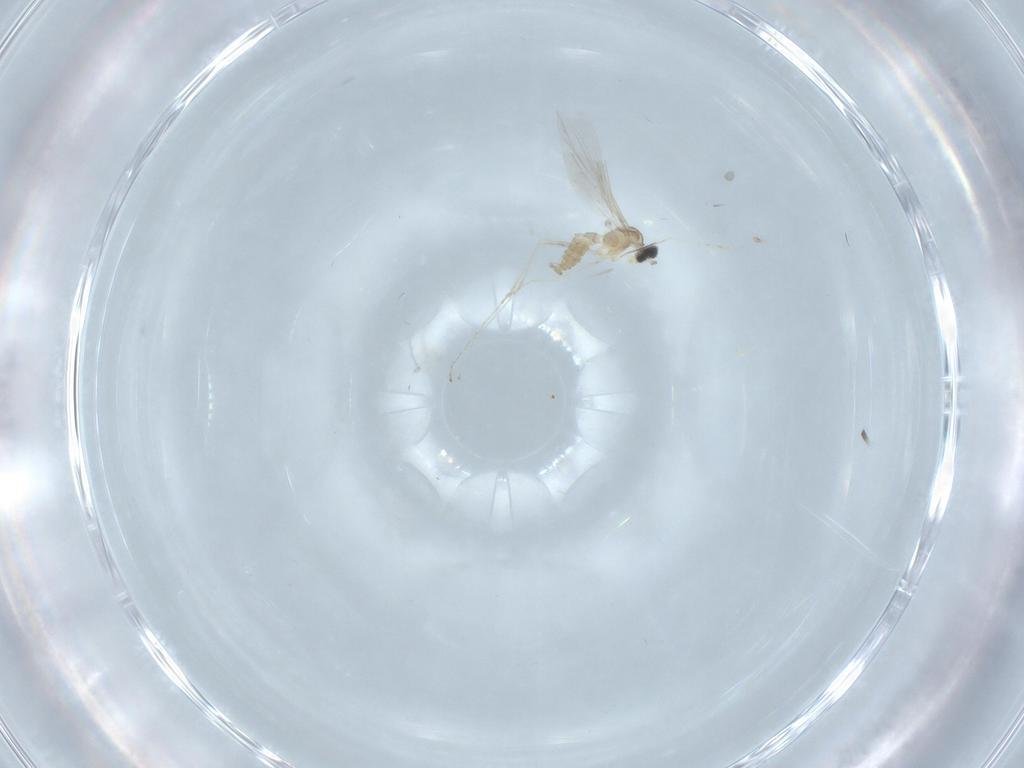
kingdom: Animalia
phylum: Arthropoda
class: Insecta
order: Diptera
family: Cecidomyiidae
